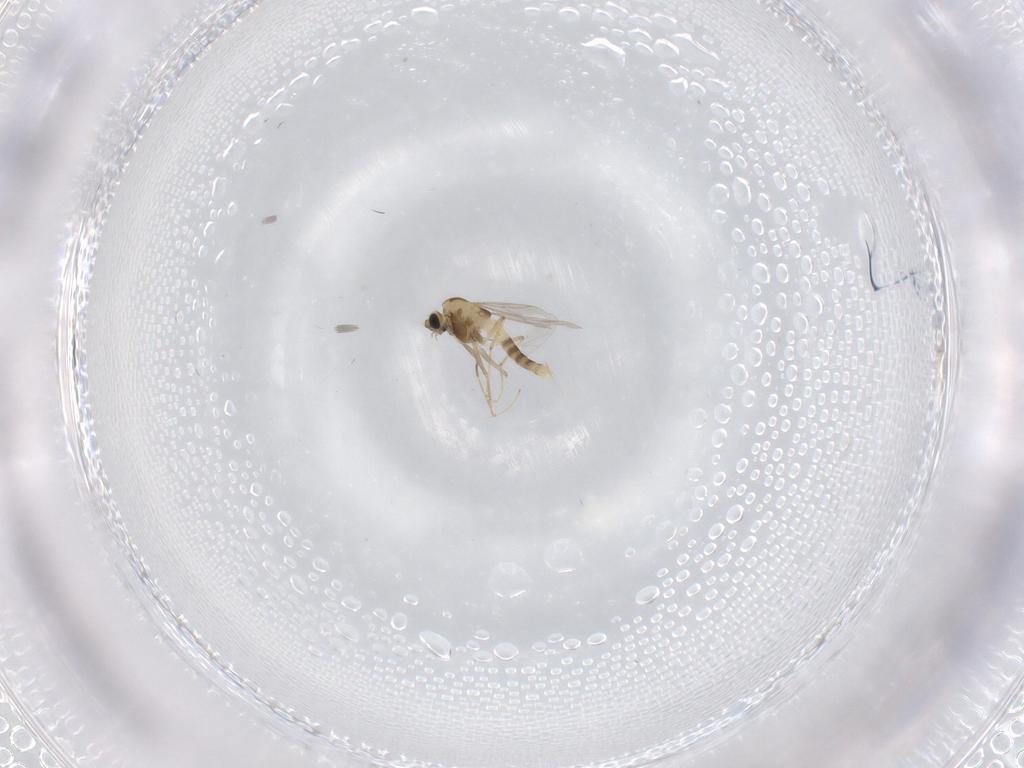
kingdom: Animalia
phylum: Arthropoda
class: Insecta
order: Diptera
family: Chironomidae
